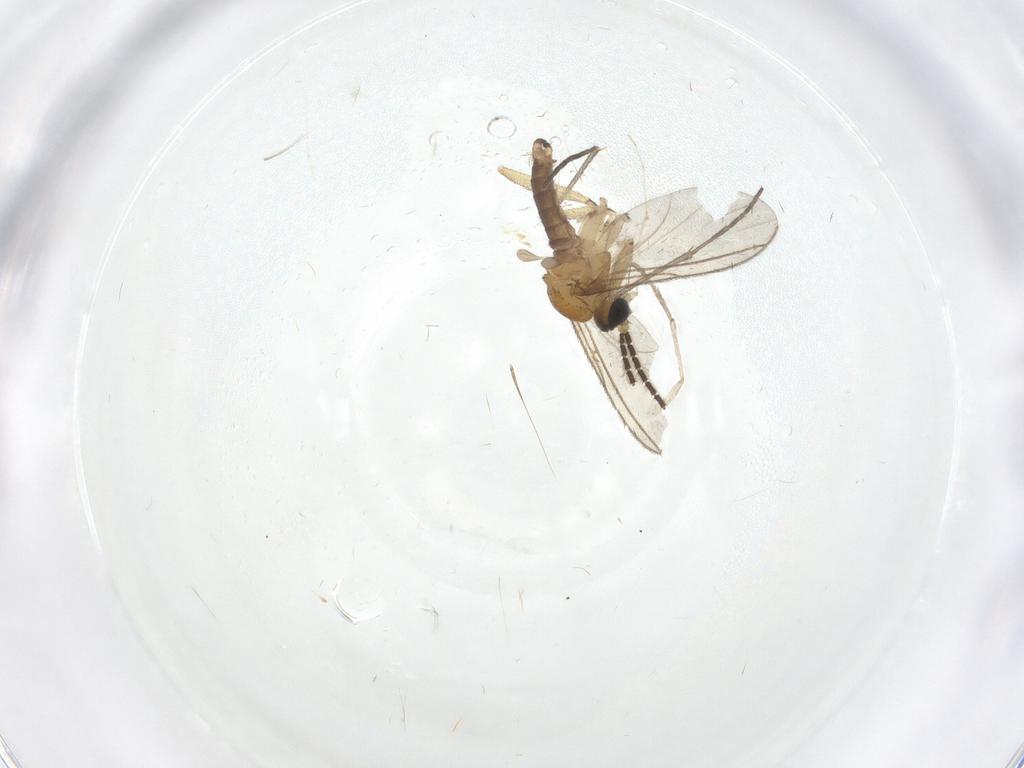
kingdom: Animalia
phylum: Arthropoda
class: Insecta
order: Diptera
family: Cecidomyiidae
